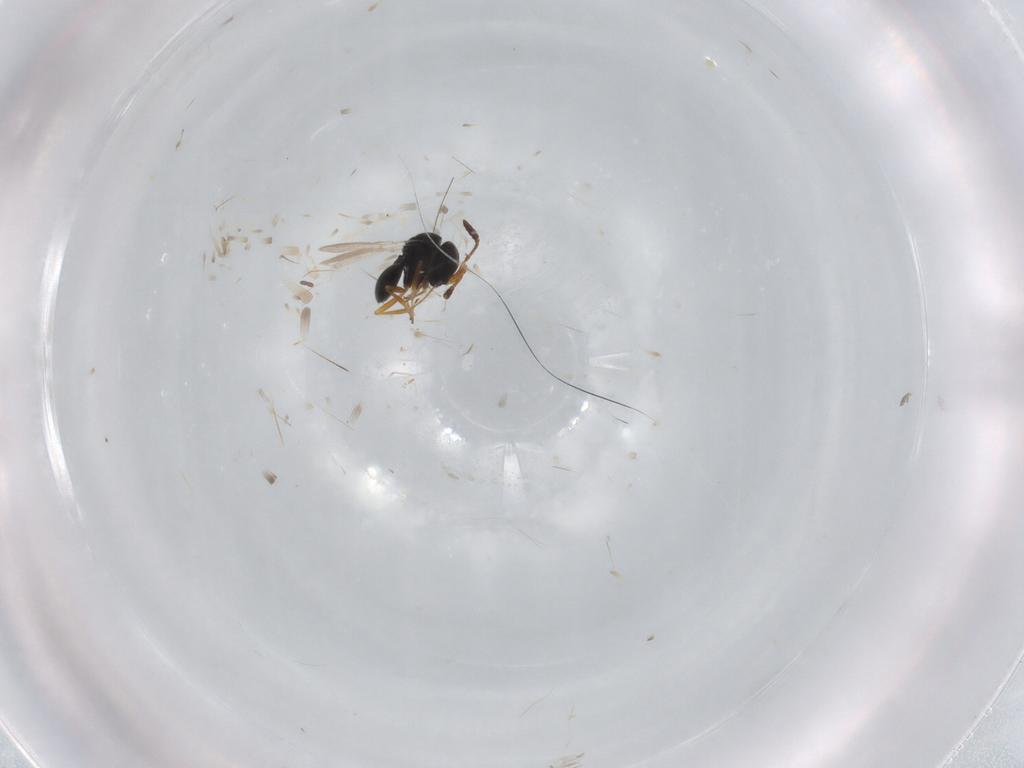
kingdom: Animalia
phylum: Arthropoda
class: Insecta
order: Hymenoptera
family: Scelionidae
